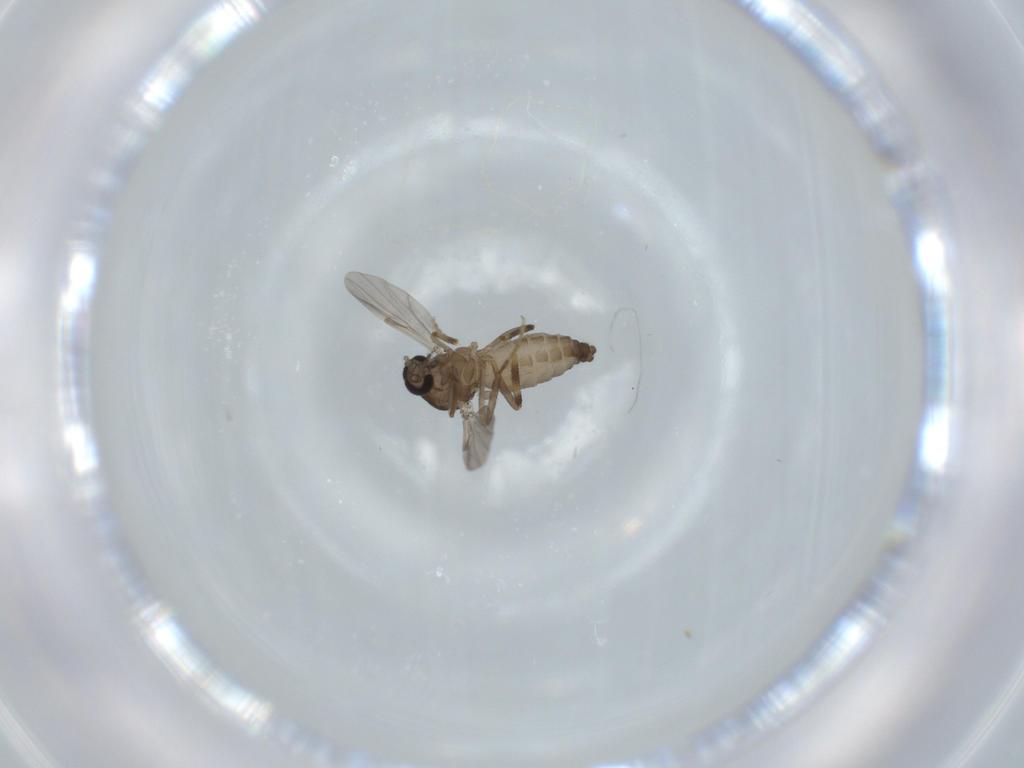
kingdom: Animalia
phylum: Arthropoda
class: Insecta
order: Diptera
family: Ceratopogonidae
